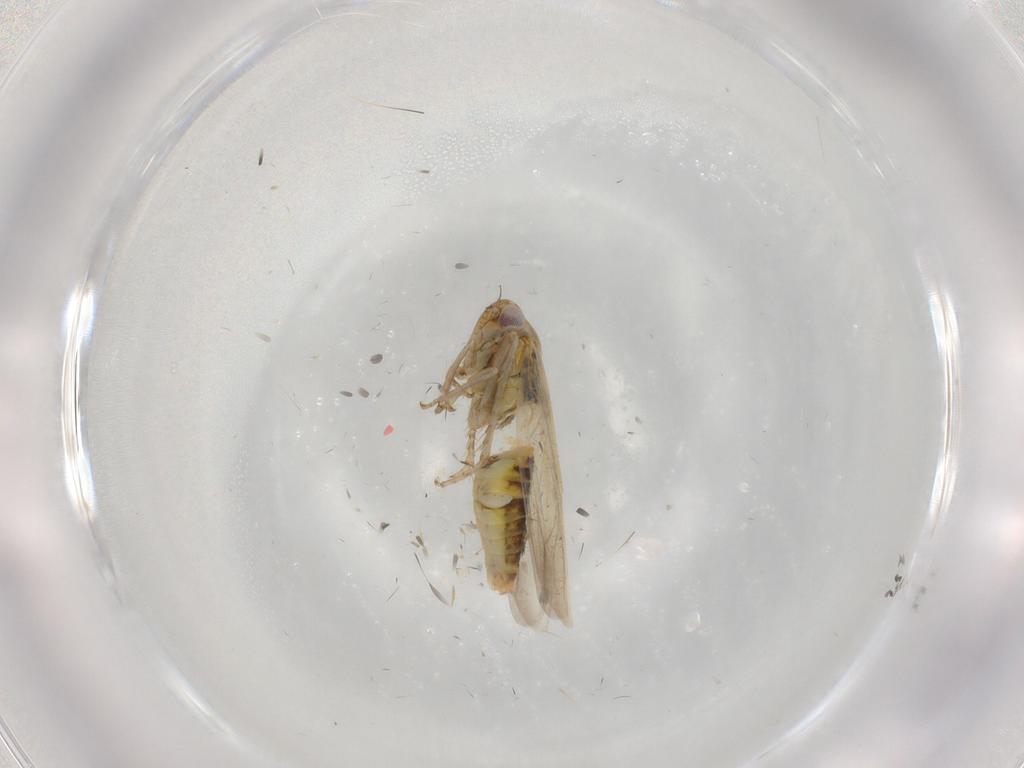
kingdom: Animalia
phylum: Arthropoda
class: Insecta
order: Hemiptera
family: Cicadellidae
